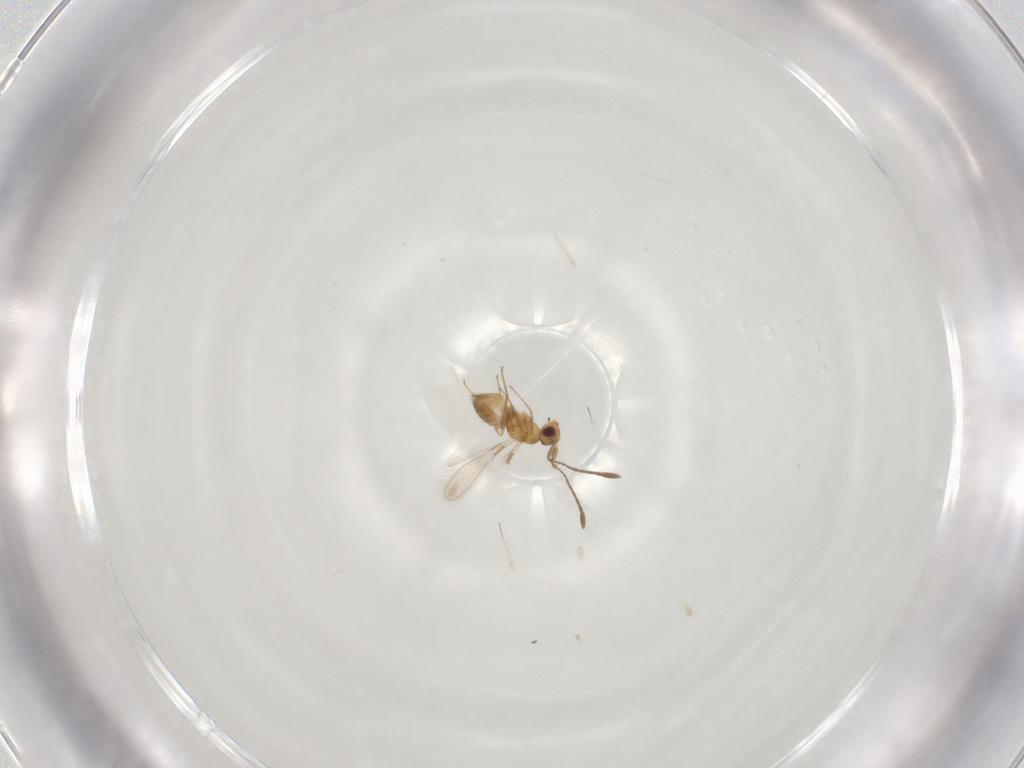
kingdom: Animalia
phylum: Arthropoda
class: Insecta
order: Hymenoptera
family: Mymaridae
